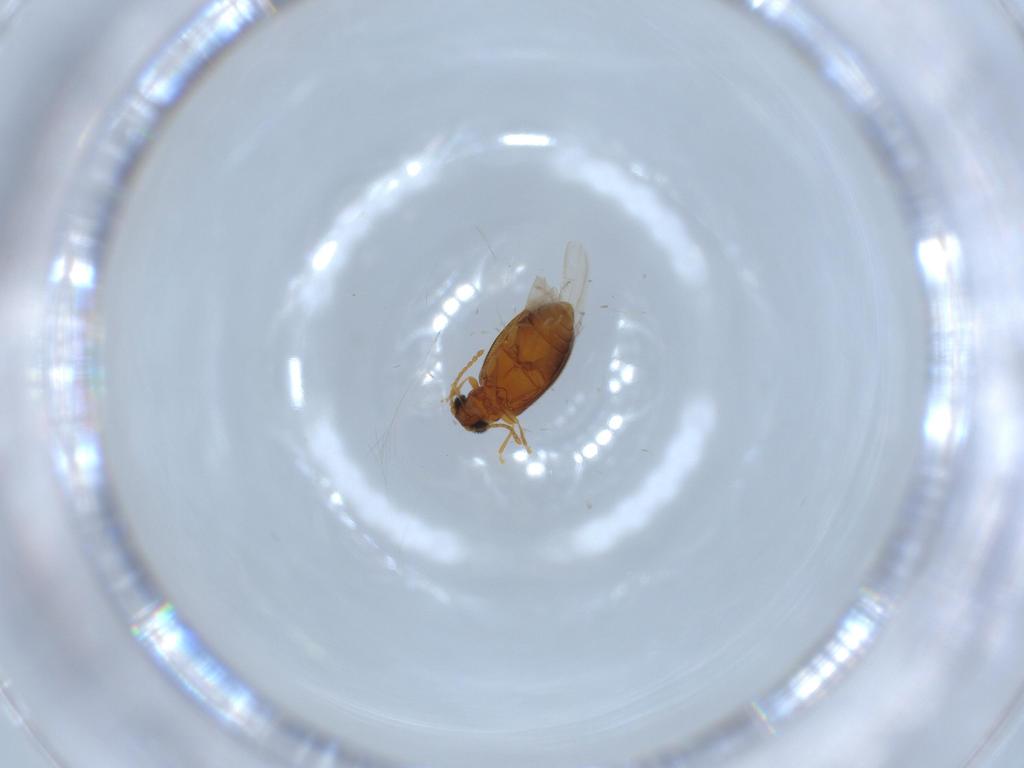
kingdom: Animalia
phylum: Arthropoda
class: Insecta
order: Coleoptera
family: Aderidae
